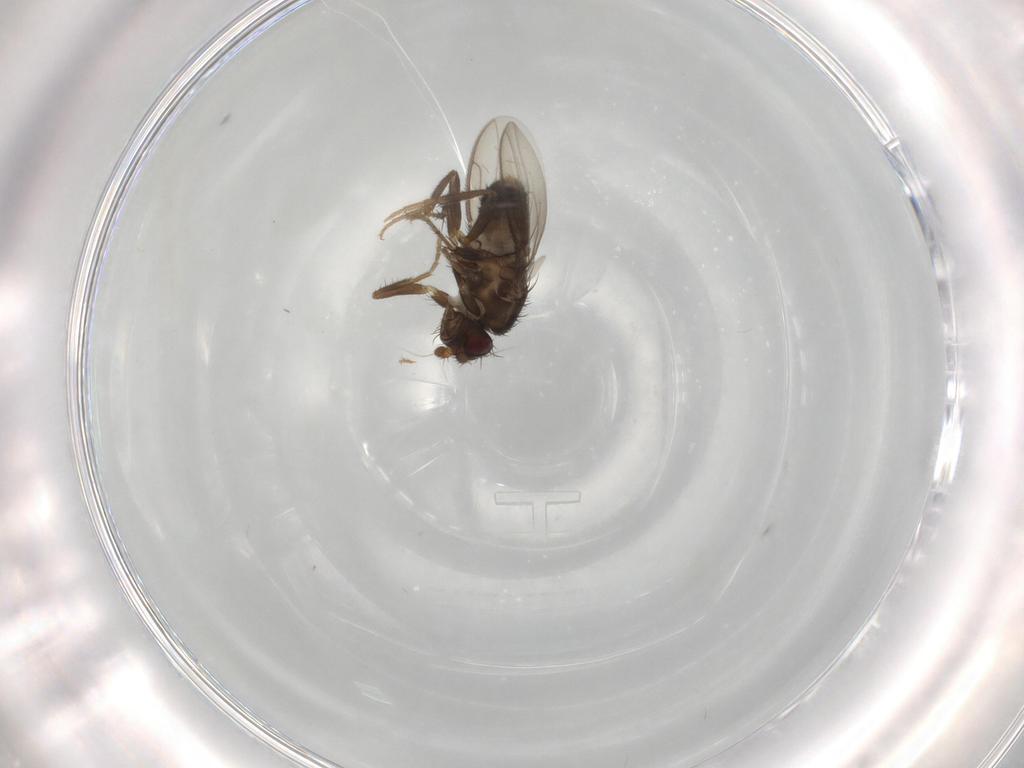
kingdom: Animalia
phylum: Arthropoda
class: Insecta
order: Diptera
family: Sphaeroceridae
